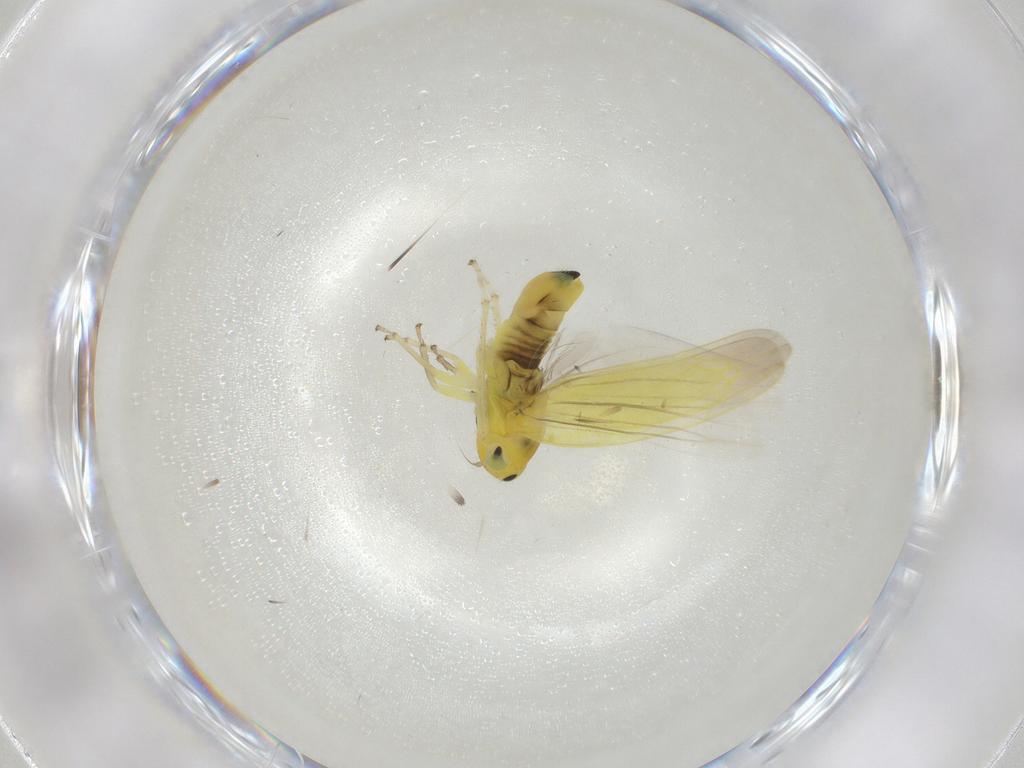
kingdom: Animalia
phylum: Arthropoda
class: Insecta
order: Hemiptera
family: Cicadellidae
